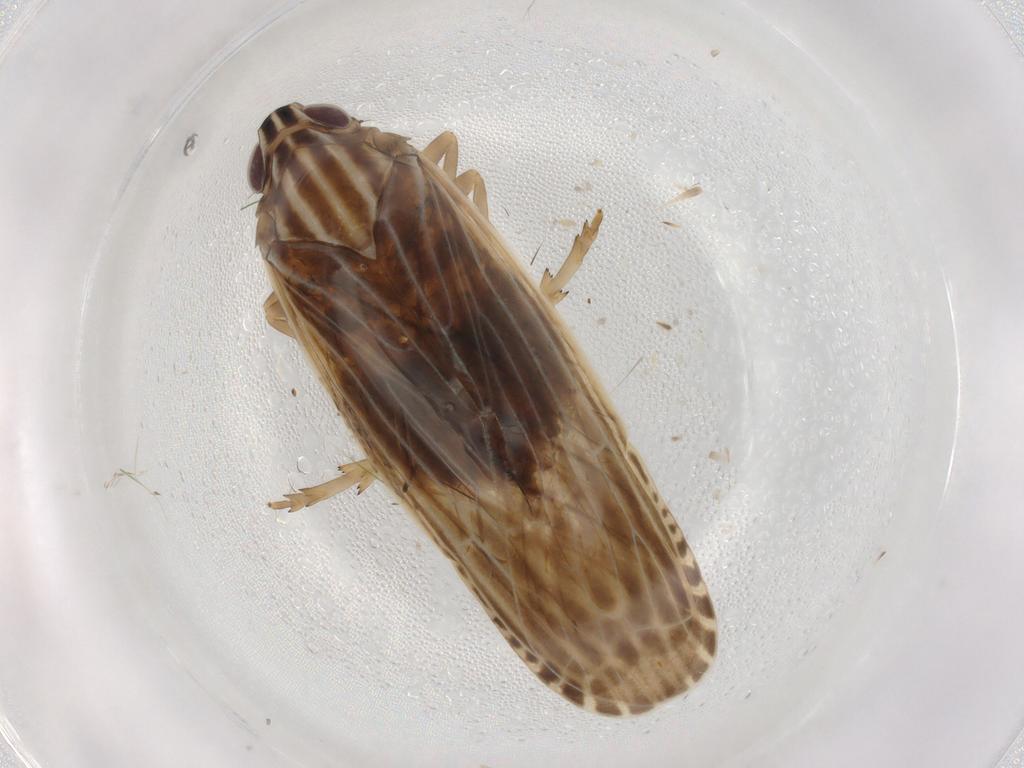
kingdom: Animalia
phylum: Arthropoda
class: Insecta
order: Hemiptera
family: Achilidae
